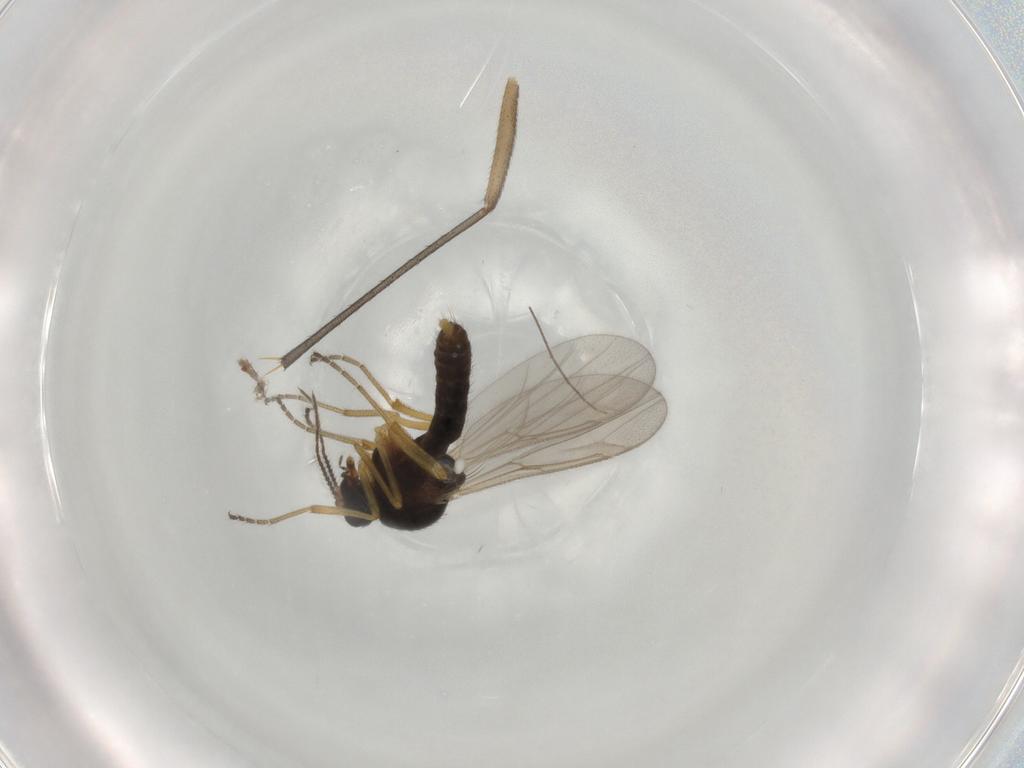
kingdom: Animalia
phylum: Arthropoda
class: Insecta
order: Diptera
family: Ceratopogonidae
